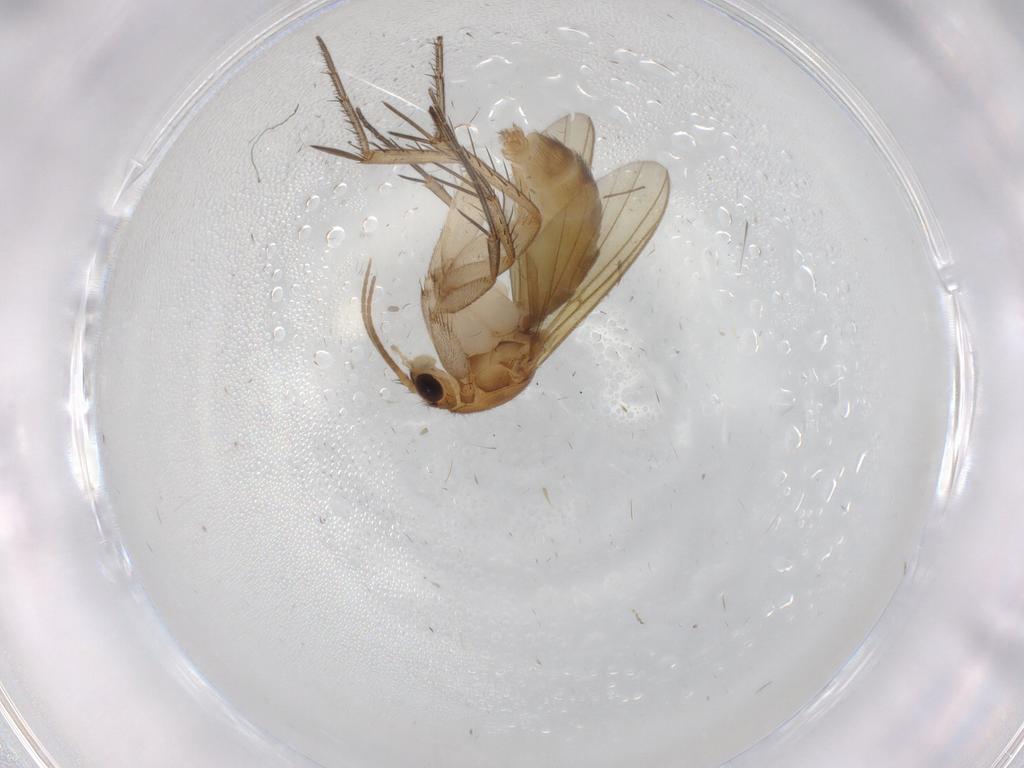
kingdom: Animalia
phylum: Arthropoda
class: Insecta
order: Diptera
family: Mycetophilidae
